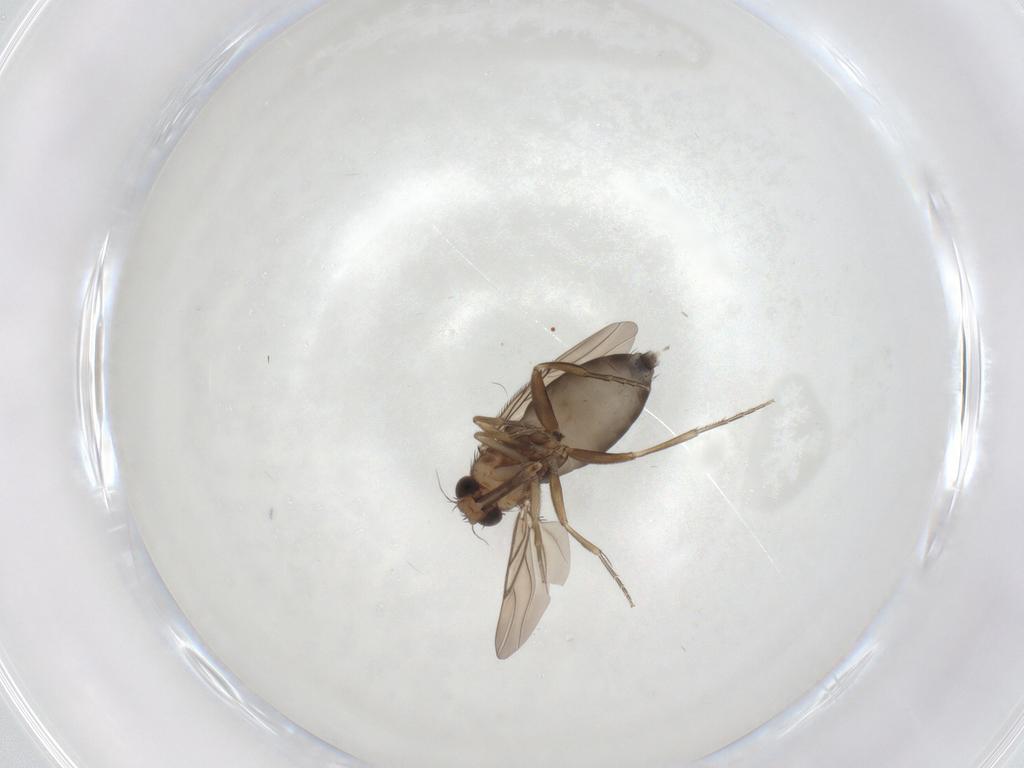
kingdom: Animalia
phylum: Arthropoda
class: Insecta
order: Diptera
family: Phoridae
